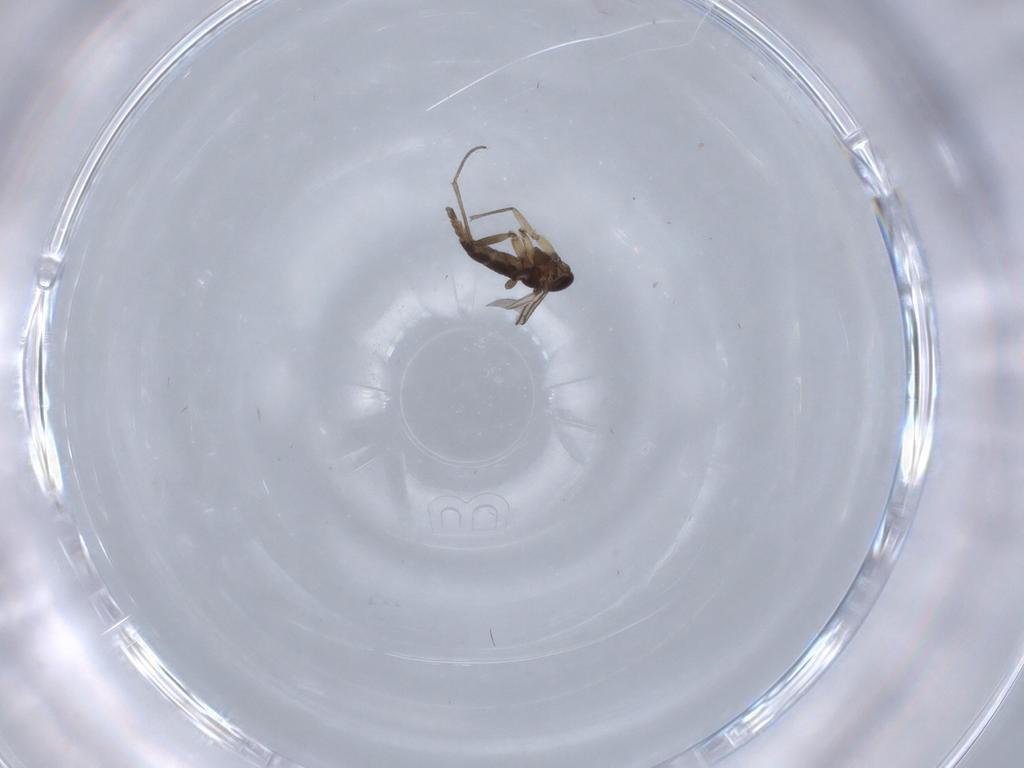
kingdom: Animalia
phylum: Arthropoda
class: Insecta
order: Diptera
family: Sciaridae
